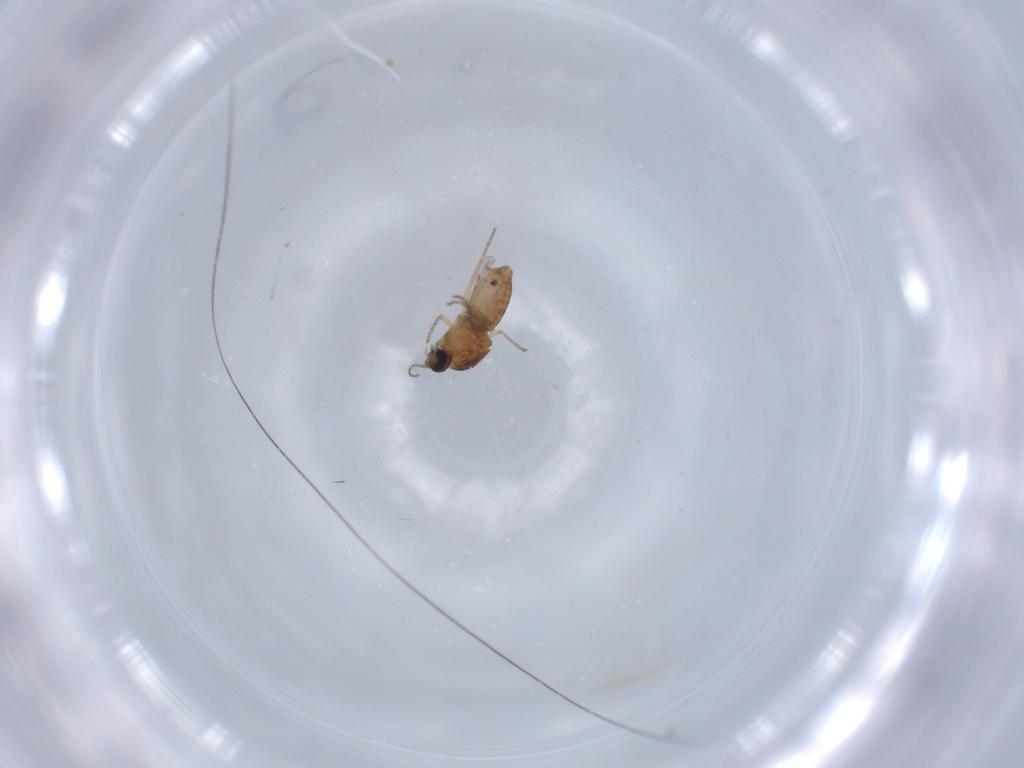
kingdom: Animalia
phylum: Arthropoda
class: Insecta
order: Diptera
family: Ceratopogonidae
